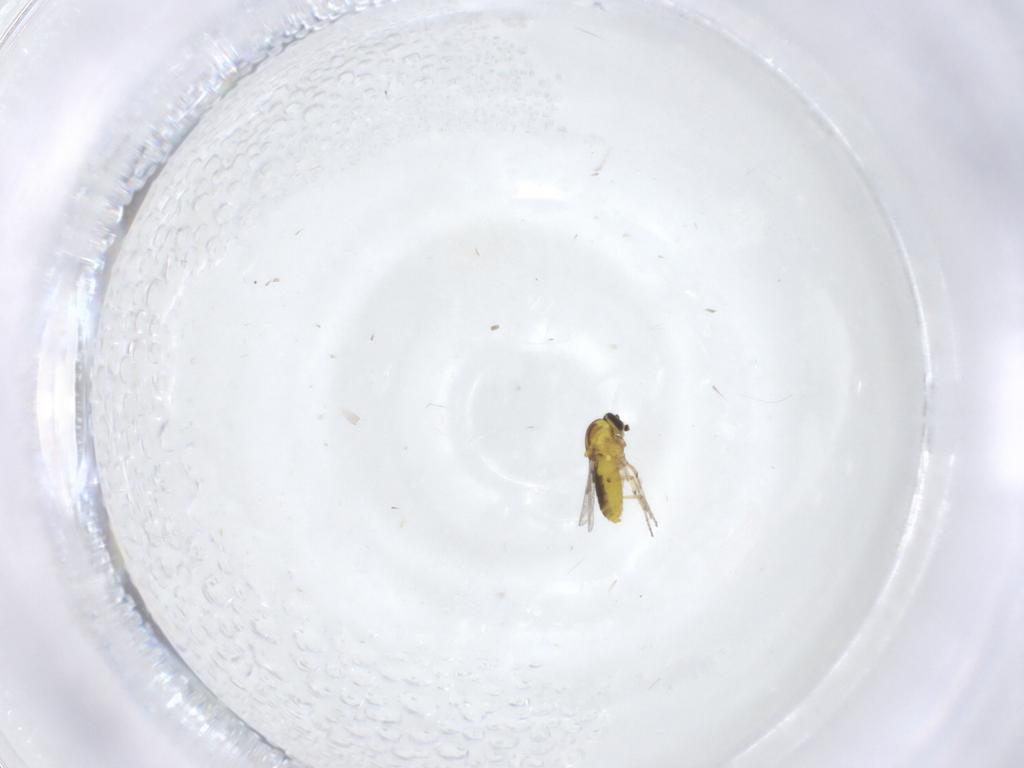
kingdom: Animalia
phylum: Arthropoda
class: Insecta
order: Diptera
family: Ceratopogonidae
